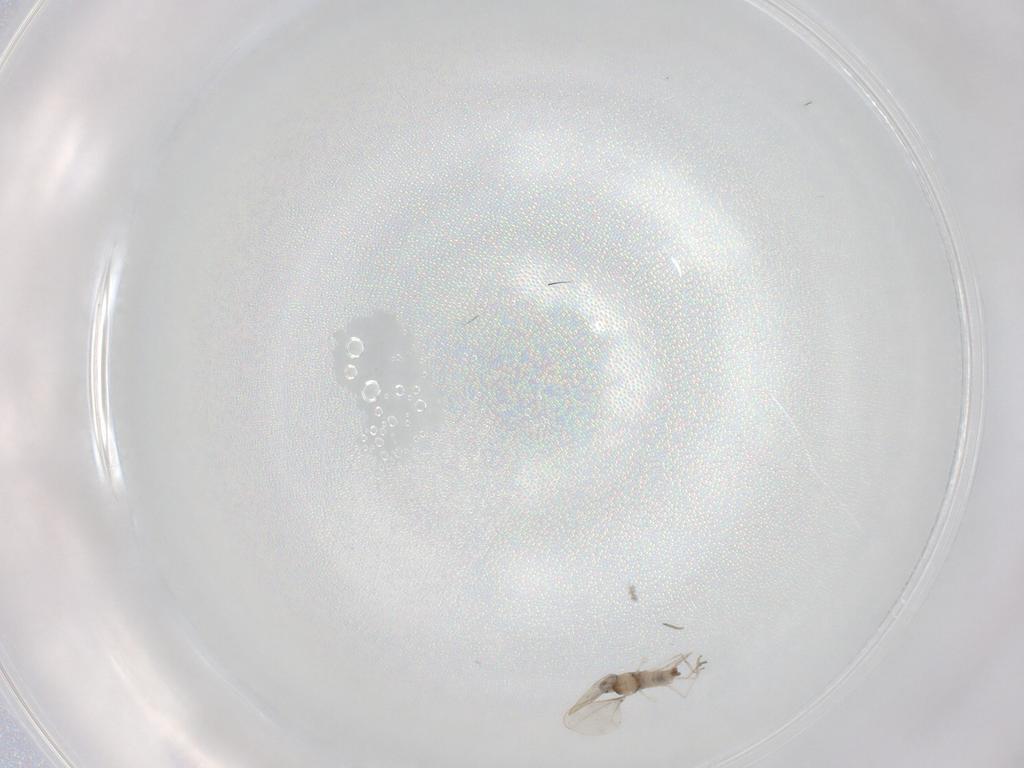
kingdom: Animalia
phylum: Arthropoda
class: Insecta
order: Diptera
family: Cecidomyiidae
